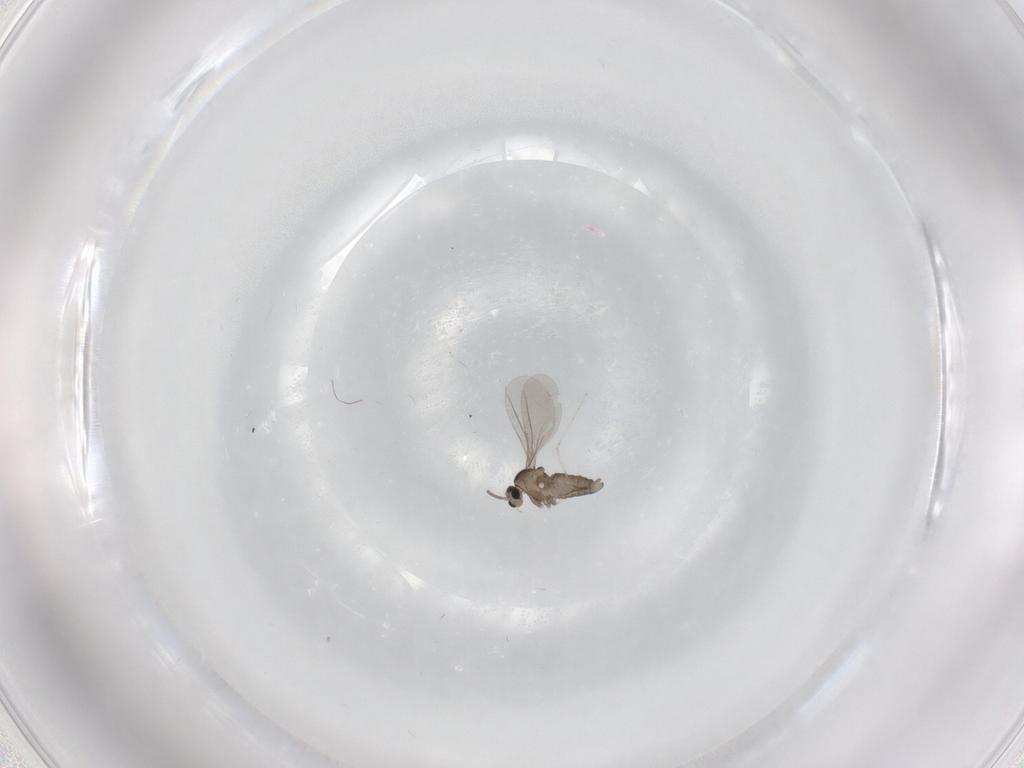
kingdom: Animalia
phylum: Arthropoda
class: Insecta
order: Diptera
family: Cecidomyiidae
